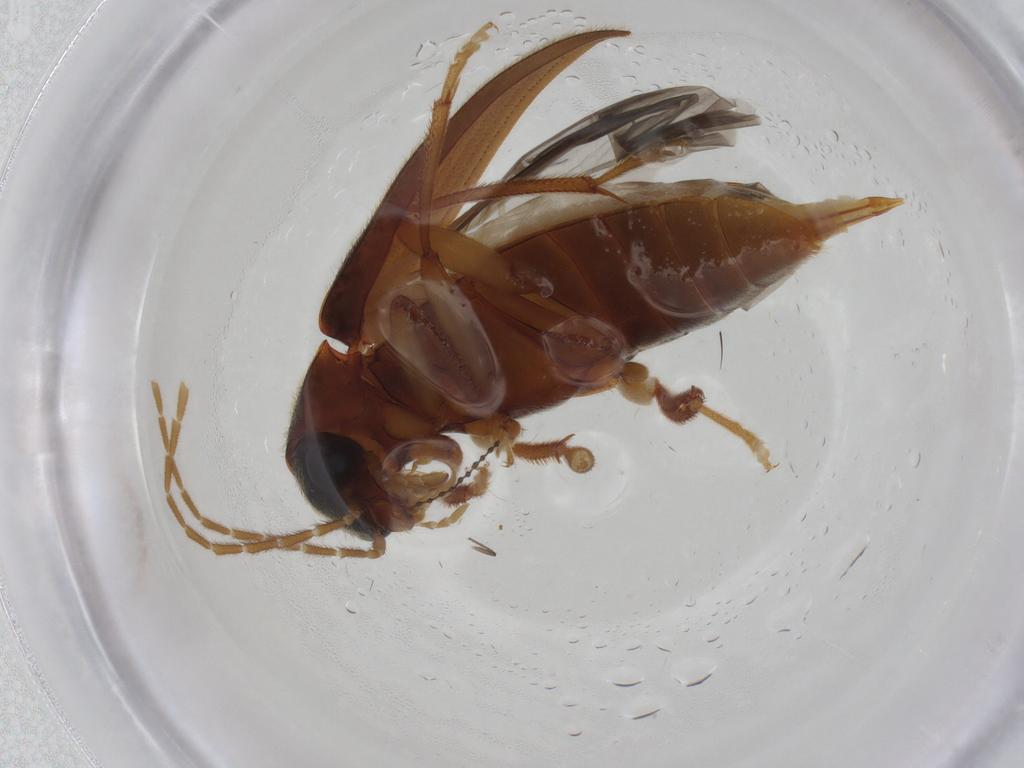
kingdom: Animalia
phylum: Arthropoda
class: Insecta
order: Coleoptera
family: Ptilodactylidae
